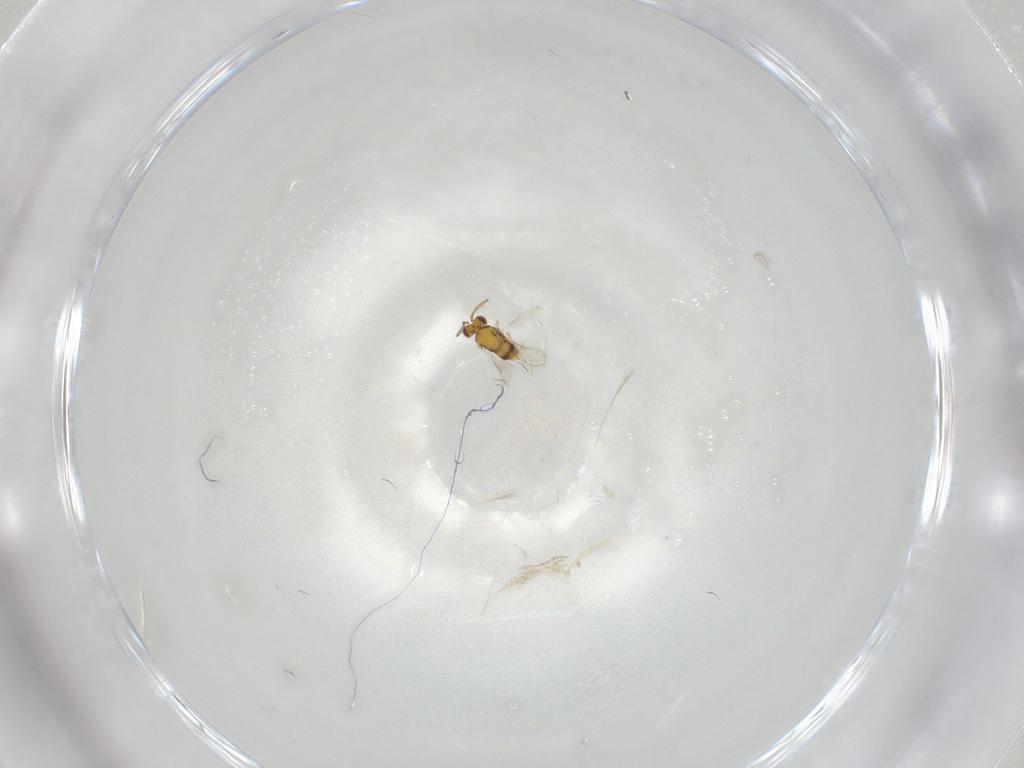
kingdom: Animalia
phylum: Arthropoda
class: Insecta
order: Hymenoptera
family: Aphelinidae
